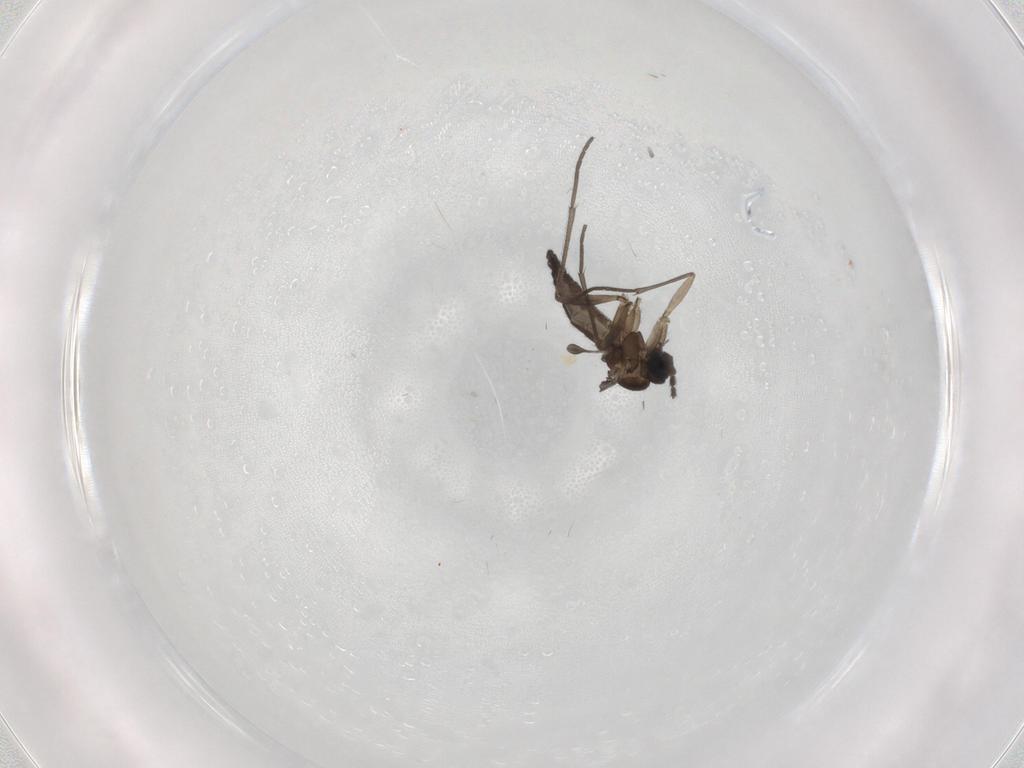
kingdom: Animalia
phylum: Arthropoda
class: Insecta
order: Diptera
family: Sciaridae
